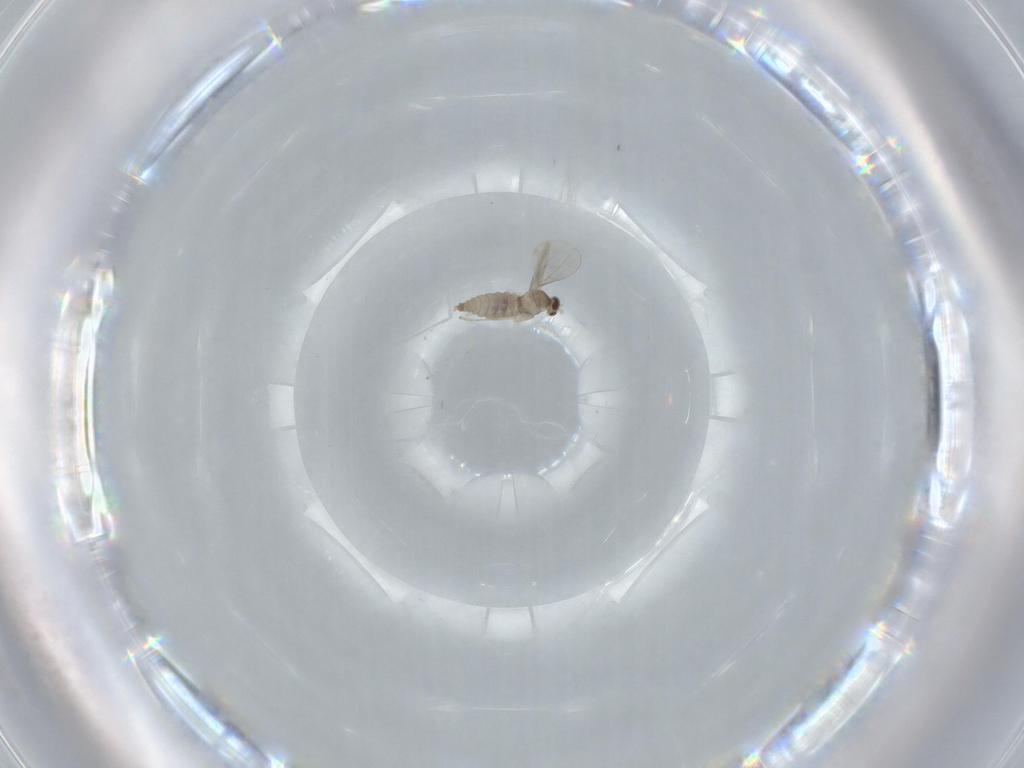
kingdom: Animalia
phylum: Arthropoda
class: Insecta
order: Diptera
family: Cecidomyiidae
